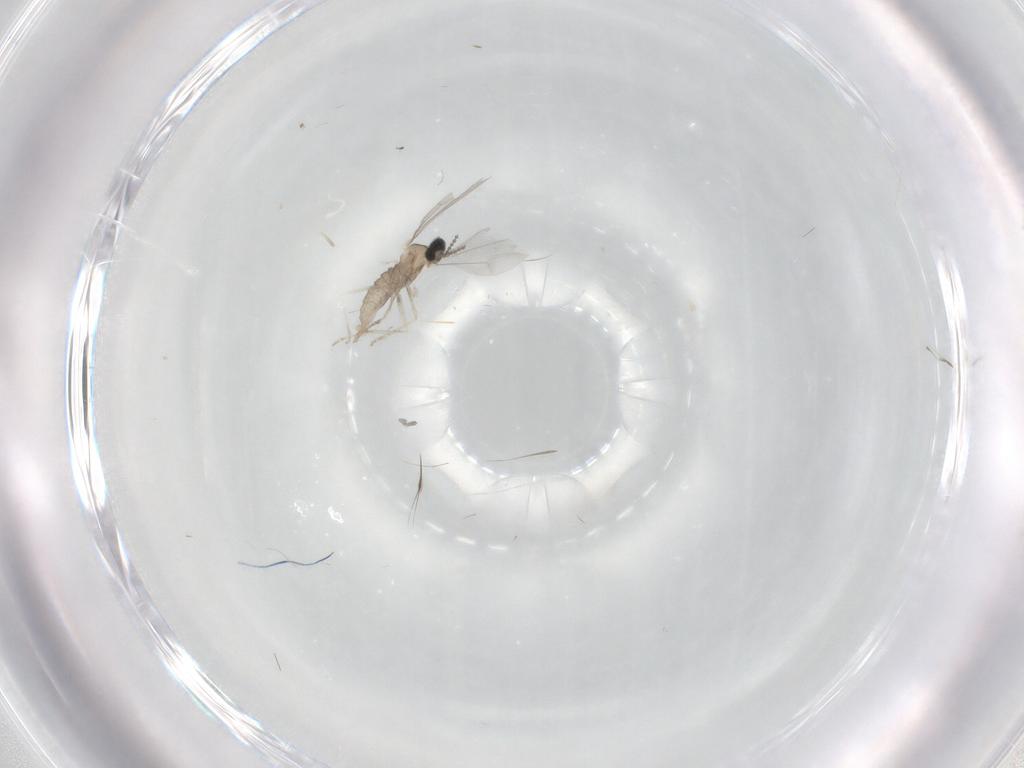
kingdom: Animalia
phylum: Arthropoda
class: Insecta
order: Diptera
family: Cecidomyiidae
